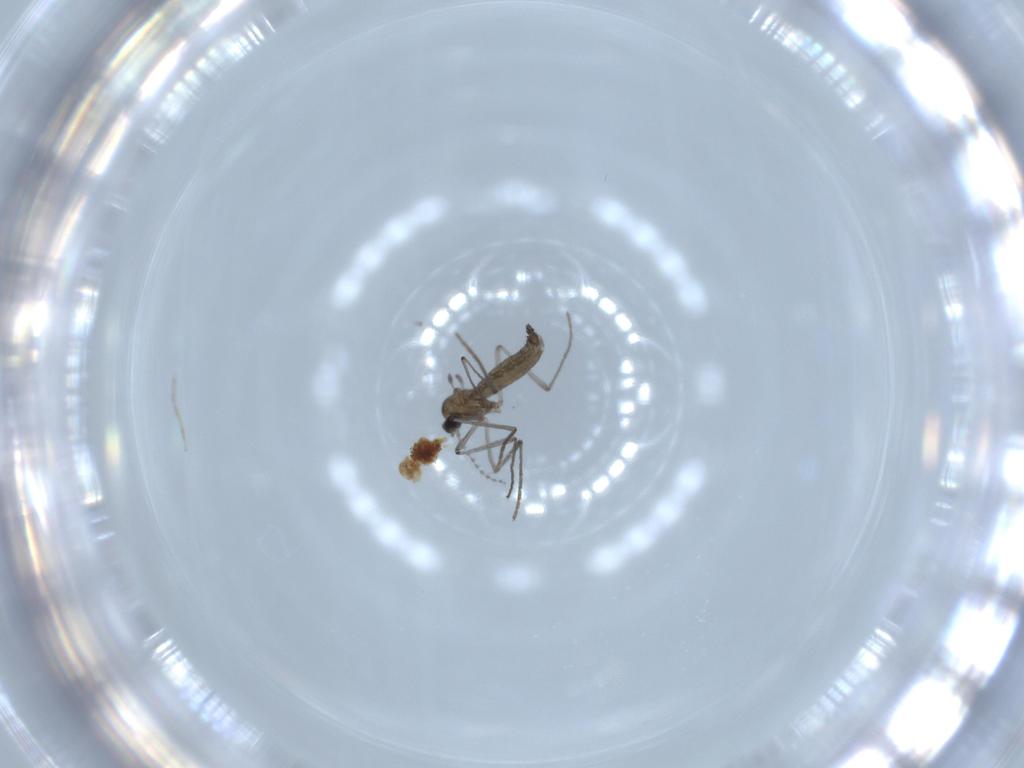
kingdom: Animalia
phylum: Arthropoda
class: Insecta
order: Diptera
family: Cecidomyiidae
